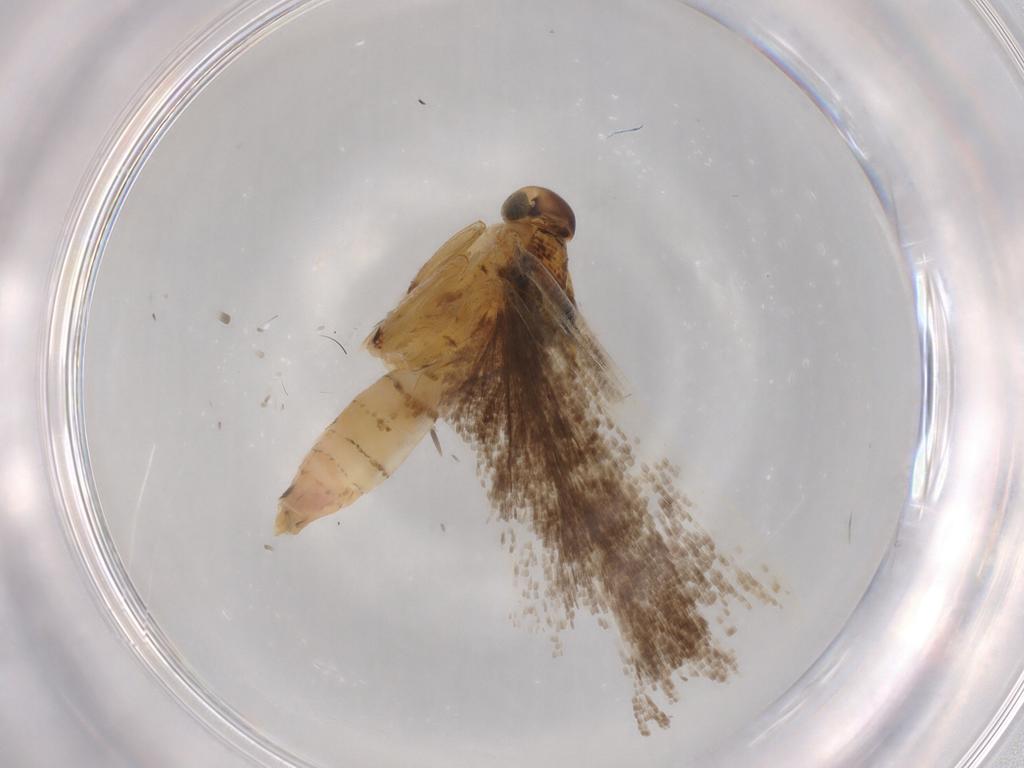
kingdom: Animalia
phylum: Arthropoda
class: Insecta
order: Lepidoptera
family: Gelechiidae
